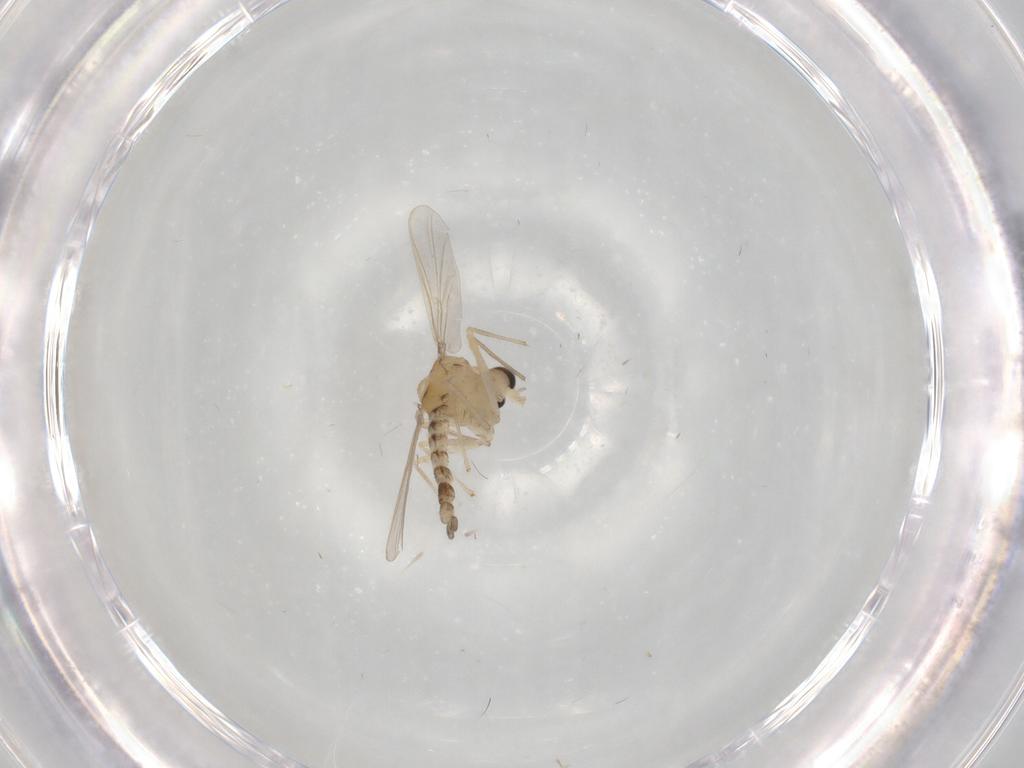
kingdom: Animalia
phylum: Arthropoda
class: Insecta
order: Diptera
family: Chironomidae
